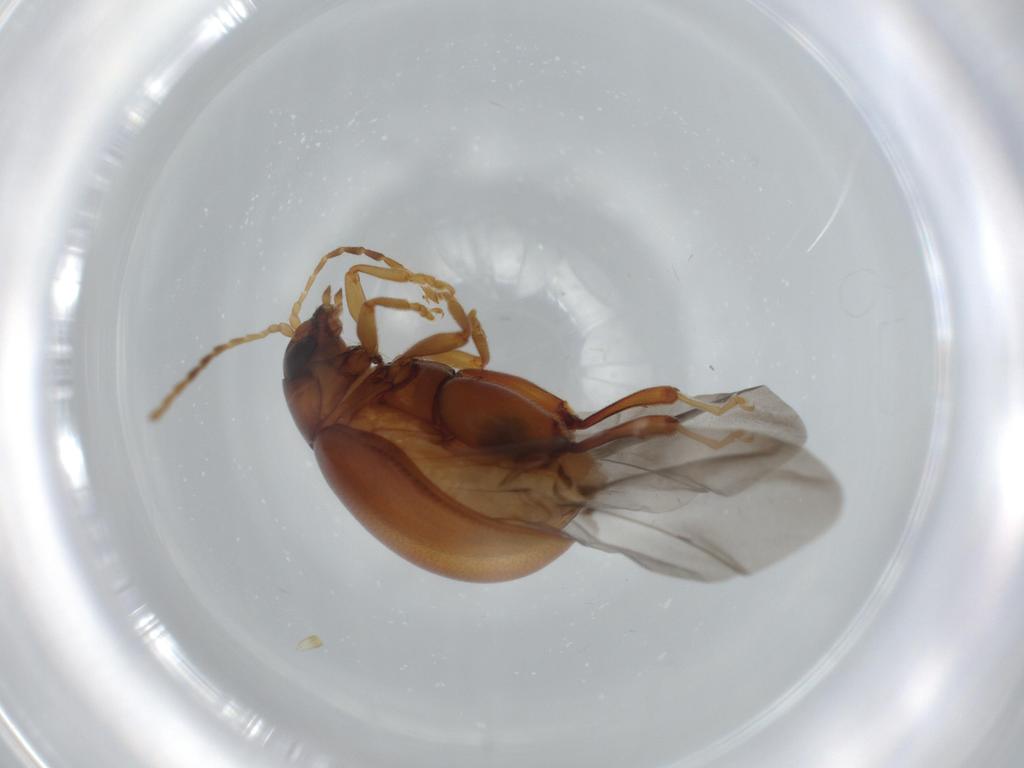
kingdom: Animalia
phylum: Arthropoda
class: Insecta
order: Coleoptera
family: Chrysomelidae
